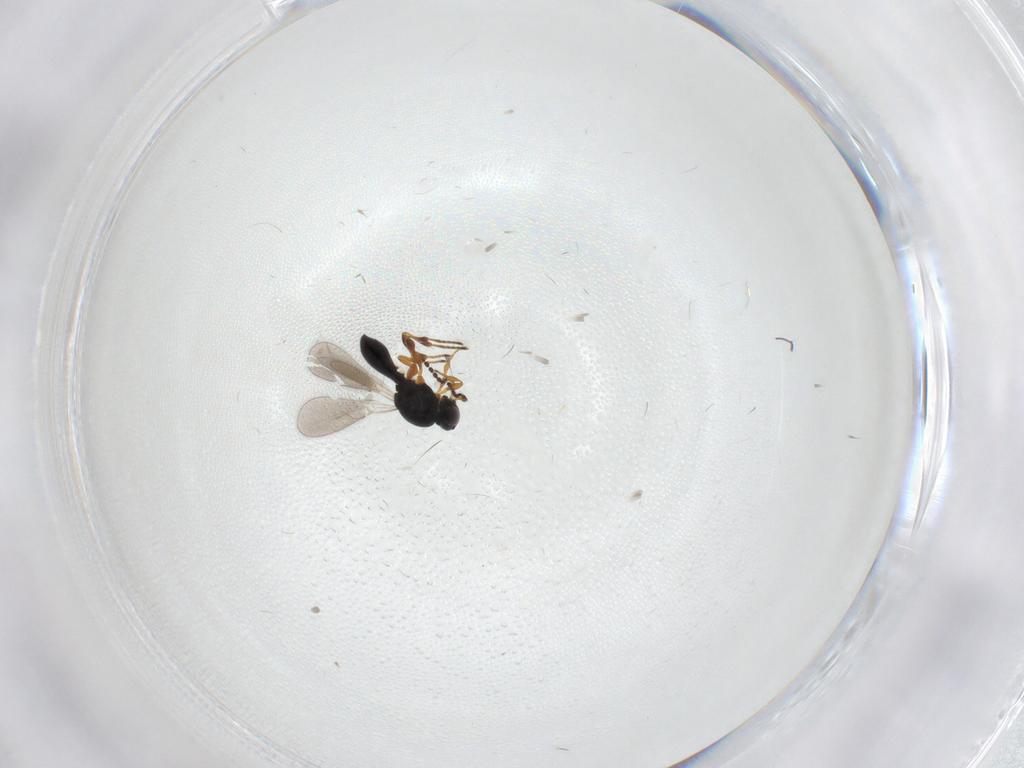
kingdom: Animalia
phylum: Arthropoda
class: Insecta
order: Hymenoptera
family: Platygastridae
